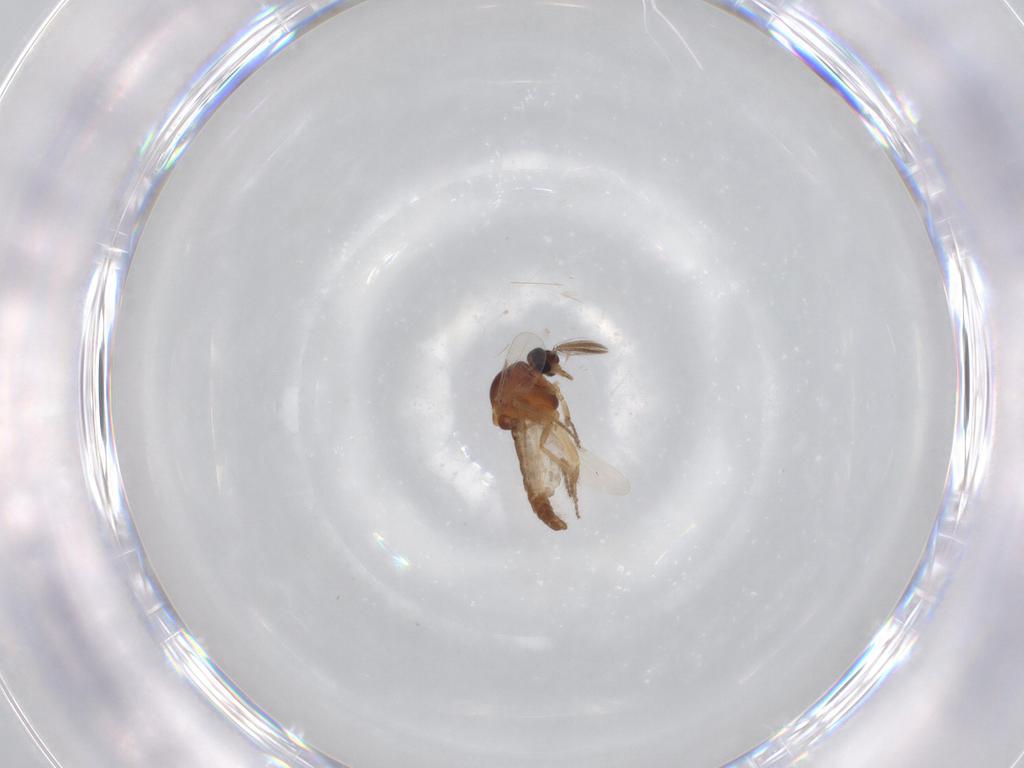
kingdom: Animalia
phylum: Arthropoda
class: Insecta
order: Diptera
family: Ceratopogonidae
